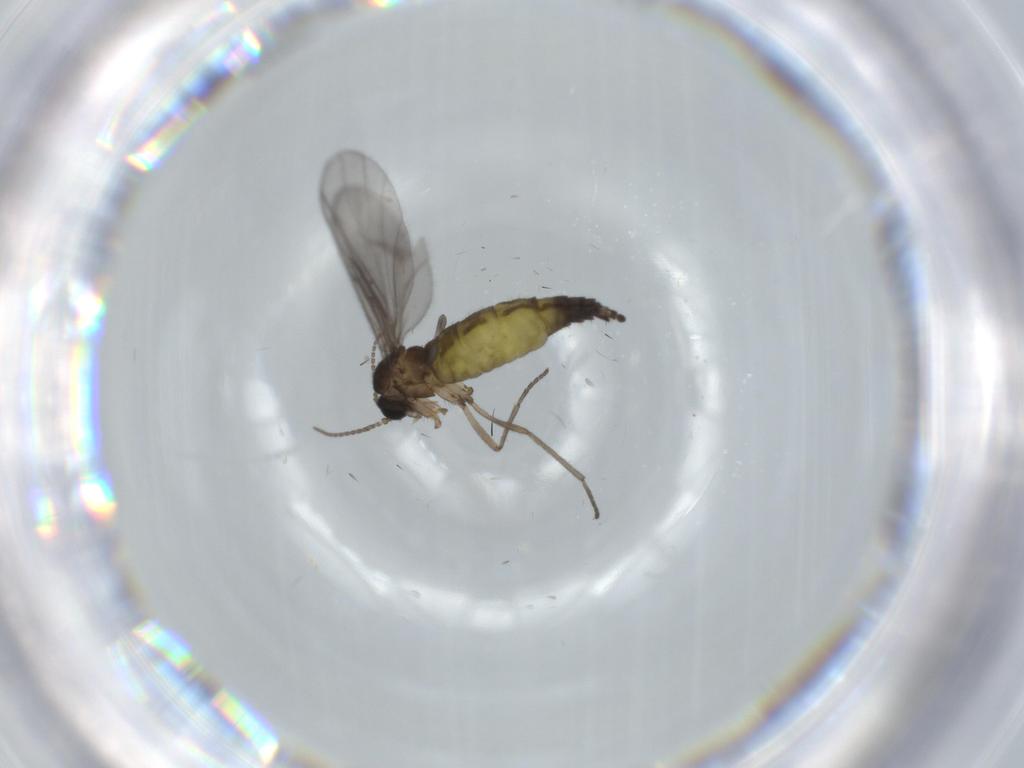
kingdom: Animalia
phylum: Arthropoda
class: Insecta
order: Diptera
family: Sciaridae
